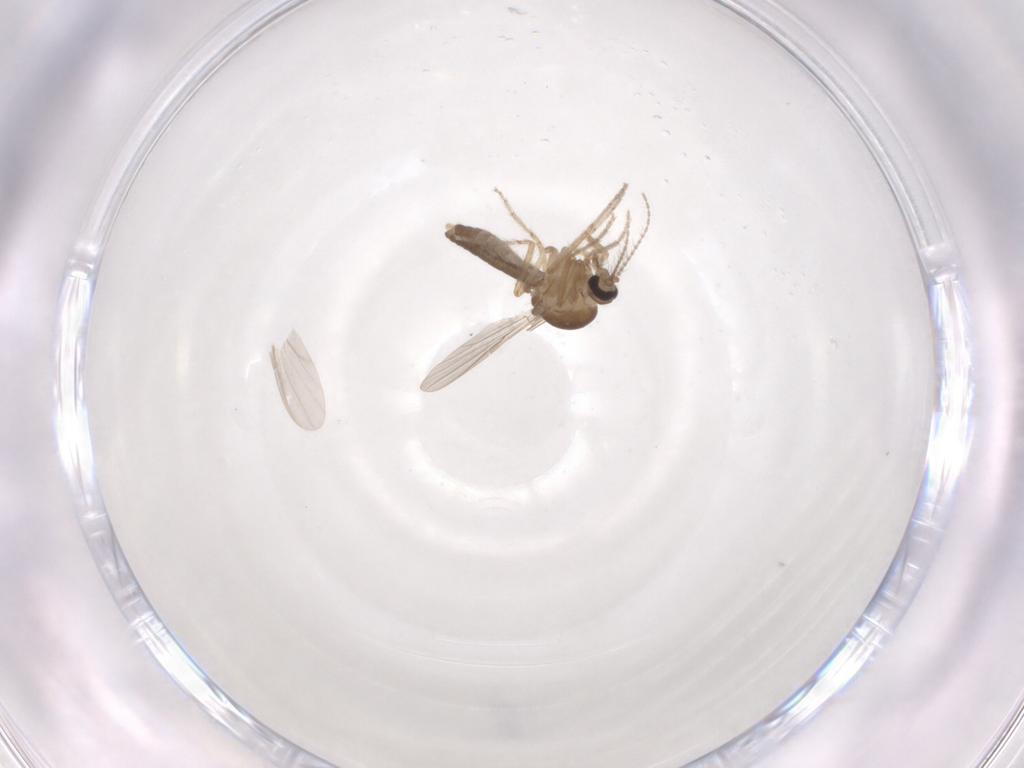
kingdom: Animalia
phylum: Arthropoda
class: Insecta
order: Diptera
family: Ceratopogonidae
